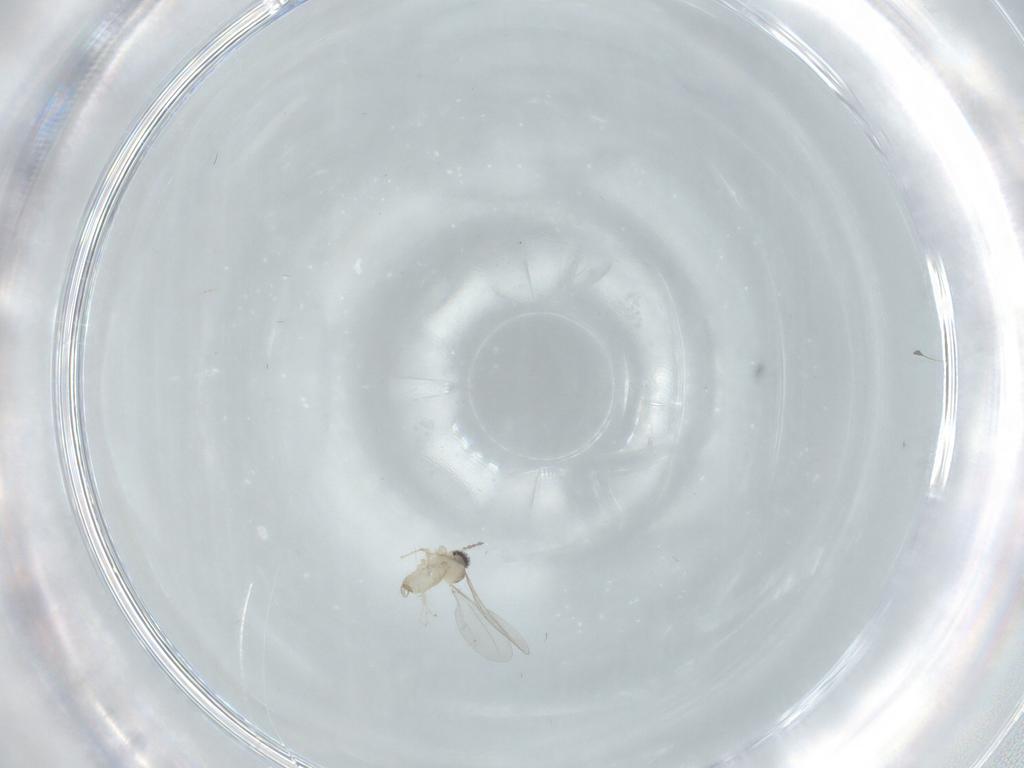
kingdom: Animalia
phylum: Arthropoda
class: Insecta
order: Diptera
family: Cecidomyiidae
